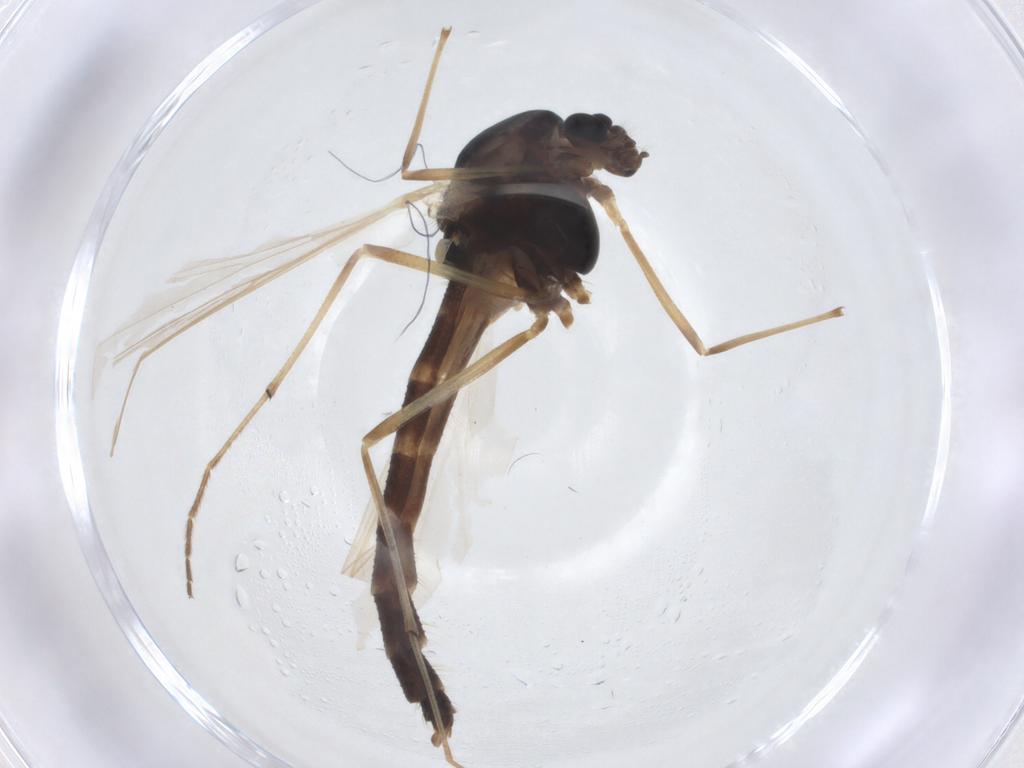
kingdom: Animalia
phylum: Arthropoda
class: Insecta
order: Diptera
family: Chironomidae
